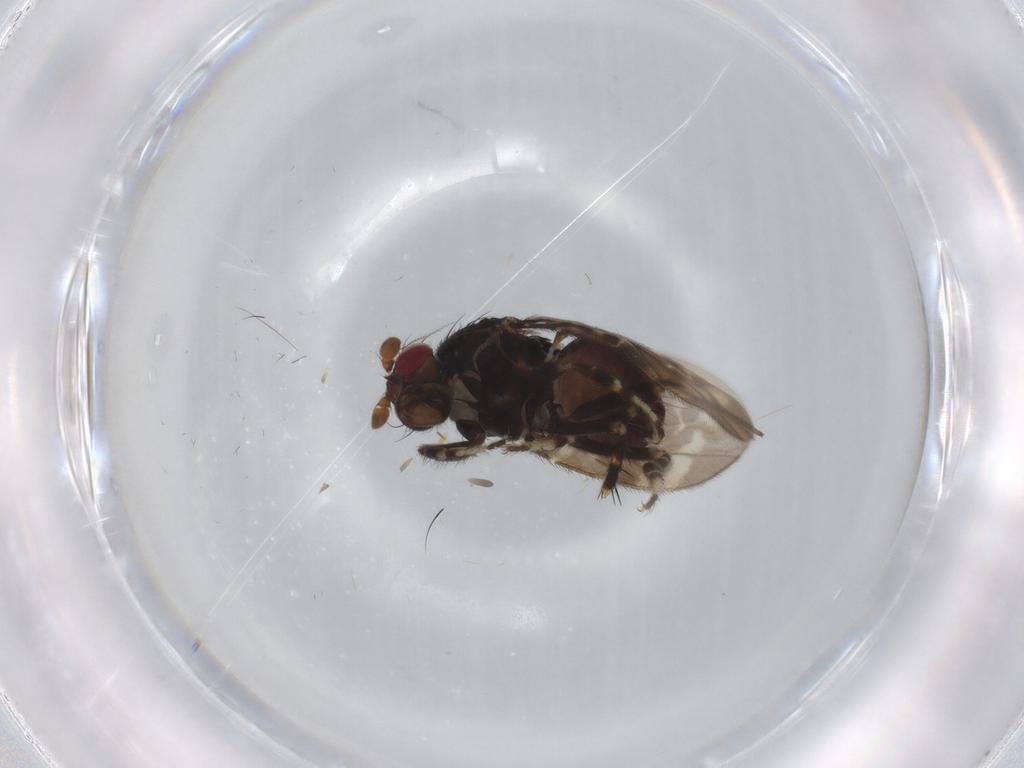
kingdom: Animalia
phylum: Arthropoda
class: Insecta
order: Diptera
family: Sphaeroceridae
